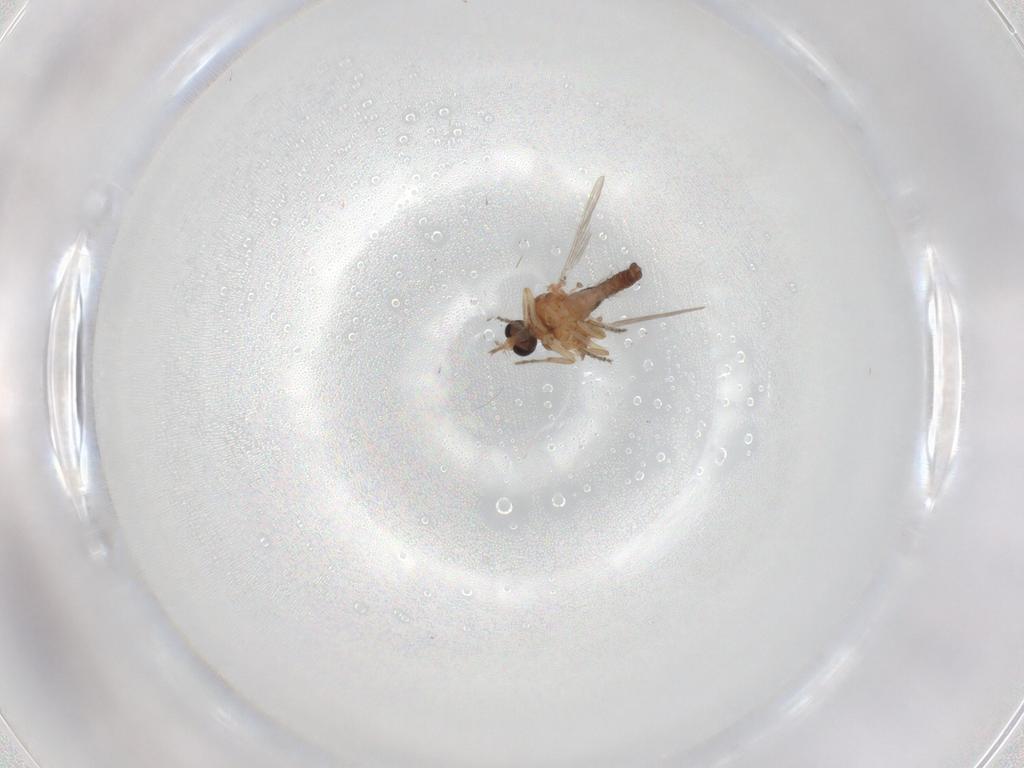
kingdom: Animalia
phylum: Arthropoda
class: Insecta
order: Diptera
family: Ceratopogonidae
